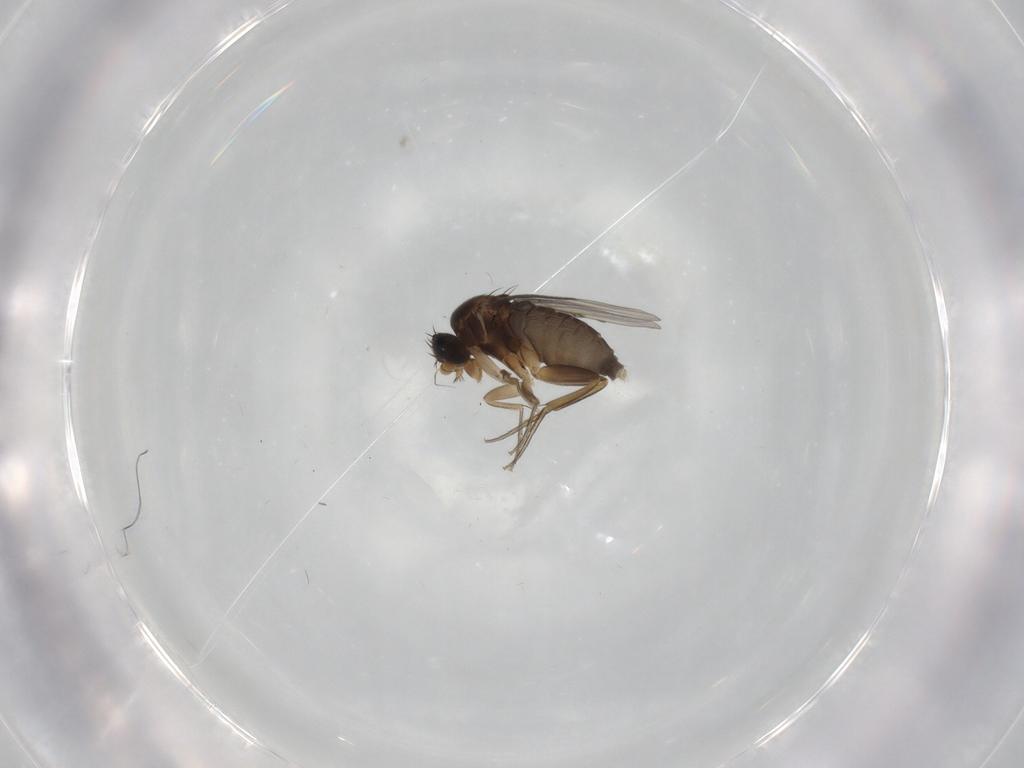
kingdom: Animalia
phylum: Arthropoda
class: Insecta
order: Diptera
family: Phoridae
